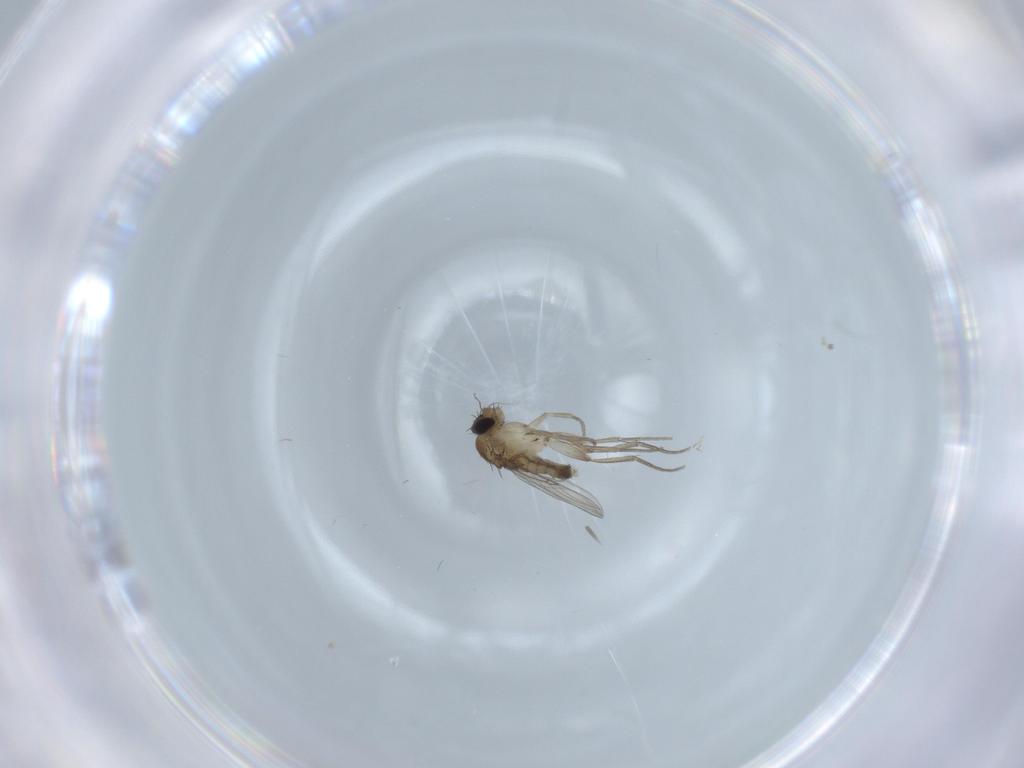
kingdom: Animalia
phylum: Arthropoda
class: Insecta
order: Diptera
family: Phoridae
